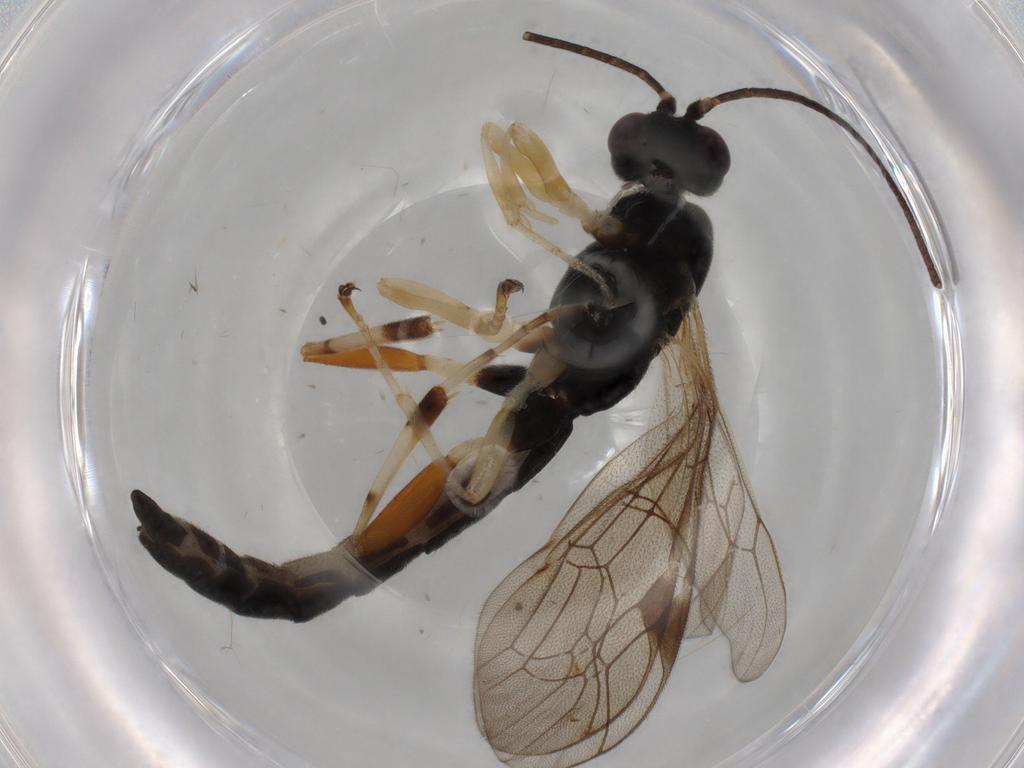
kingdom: Animalia
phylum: Arthropoda
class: Insecta
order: Hymenoptera
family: Ichneumonidae
